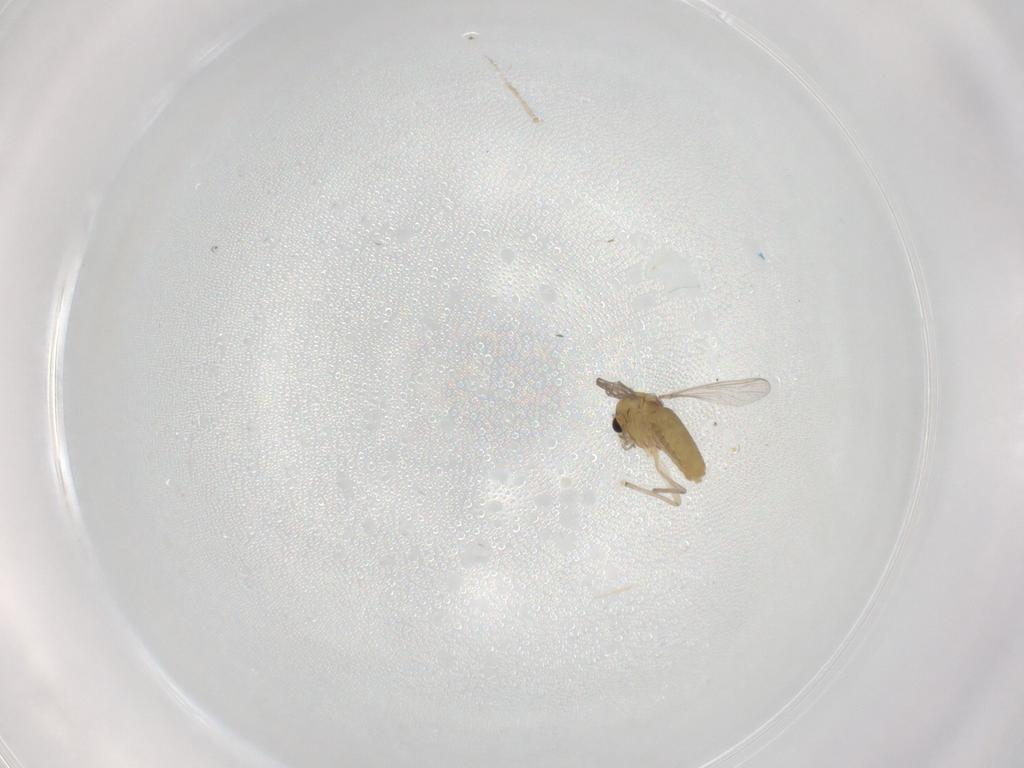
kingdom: Animalia
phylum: Arthropoda
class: Insecta
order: Diptera
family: Chironomidae
